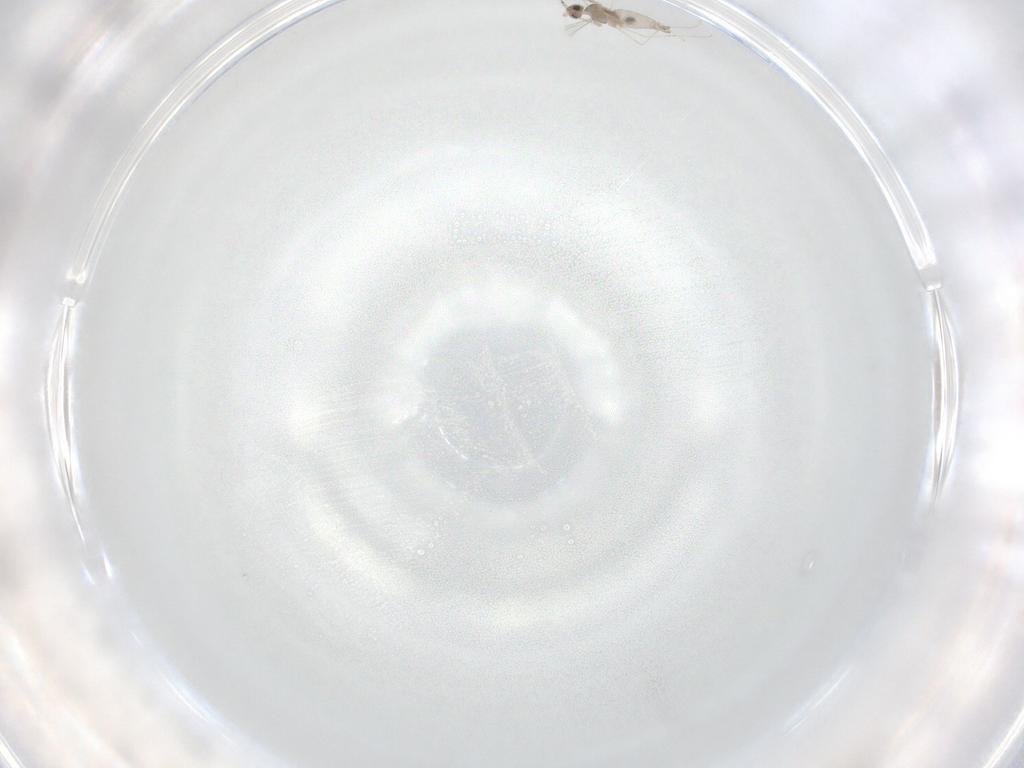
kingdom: Animalia
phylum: Arthropoda
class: Insecta
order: Diptera
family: Cecidomyiidae
